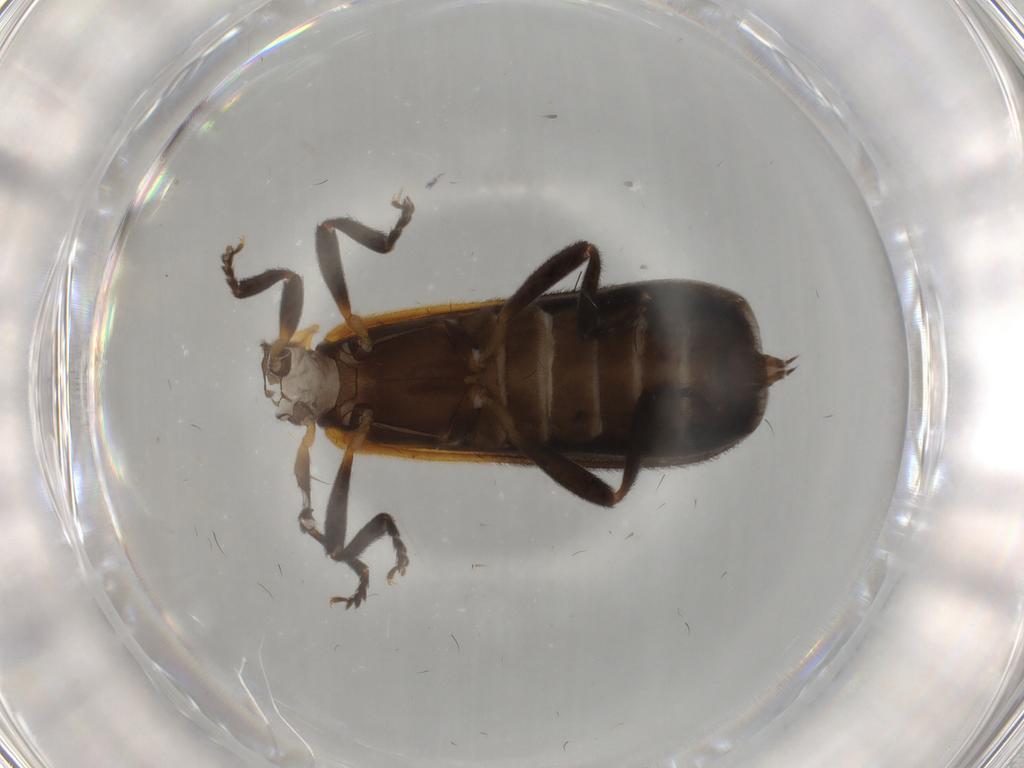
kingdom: Animalia
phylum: Arthropoda
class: Insecta
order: Coleoptera
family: Lycidae
